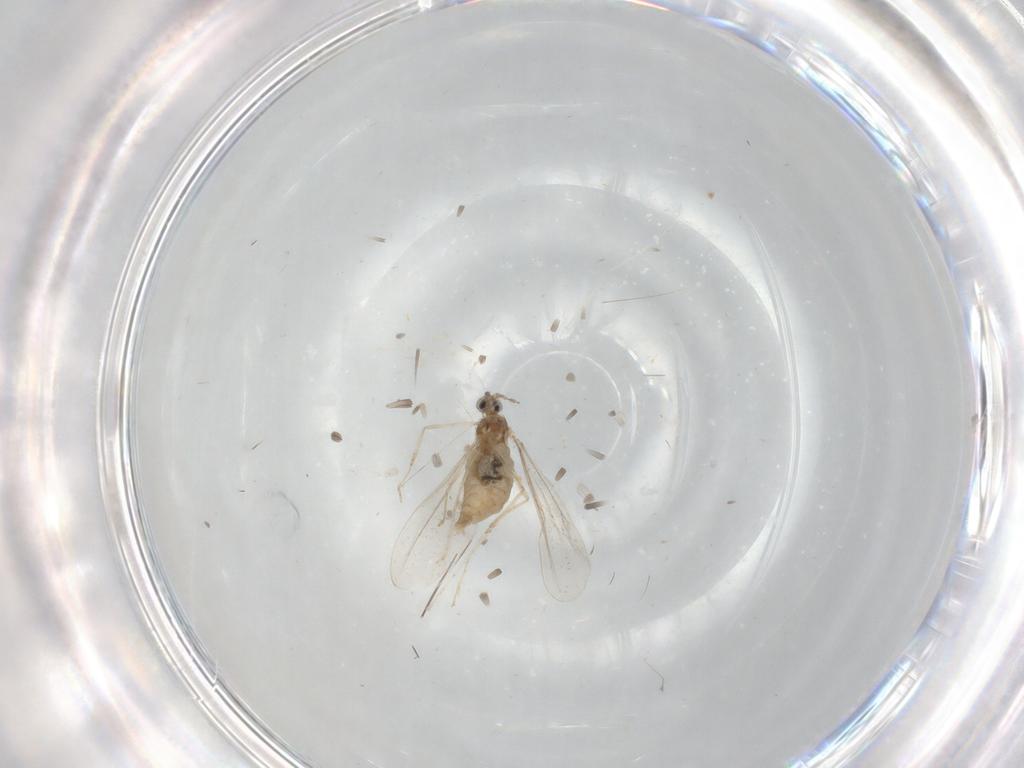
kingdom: Animalia
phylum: Arthropoda
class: Insecta
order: Diptera
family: Cecidomyiidae
